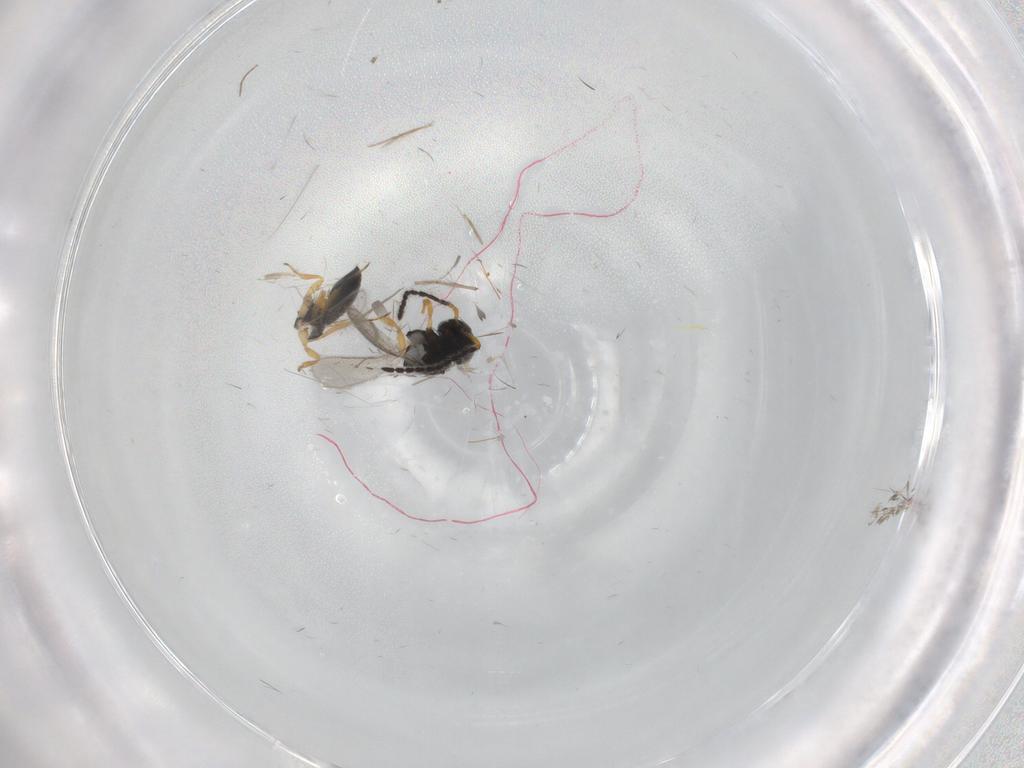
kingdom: Animalia
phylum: Arthropoda
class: Insecta
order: Hymenoptera
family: Scelionidae
